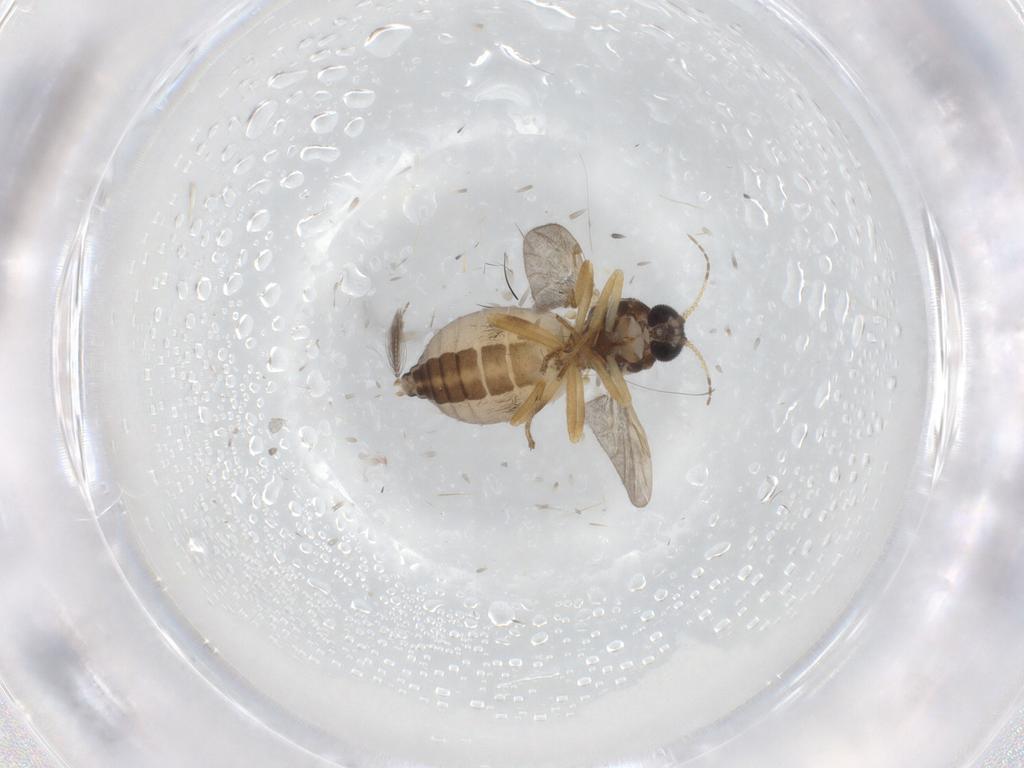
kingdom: Animalia
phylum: Arthropoda
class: Insecta
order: Diptera
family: Ceratopogonidae
